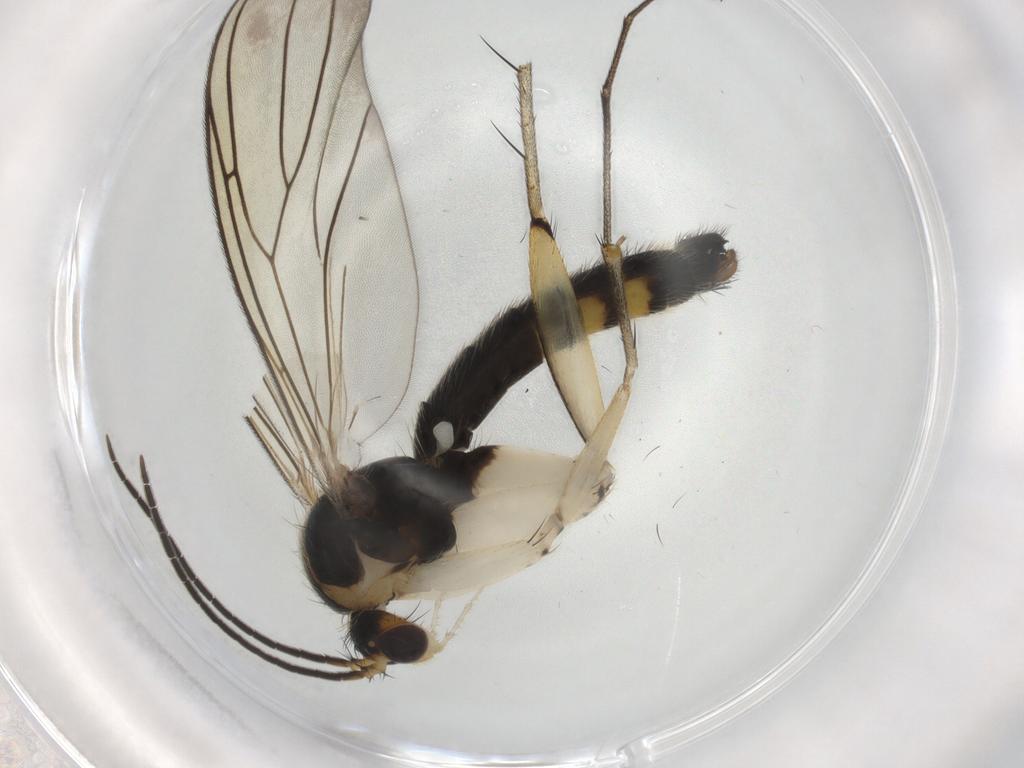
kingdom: Animalia
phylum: Arthropoda
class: Insecta
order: Diptera
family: Phoridae
